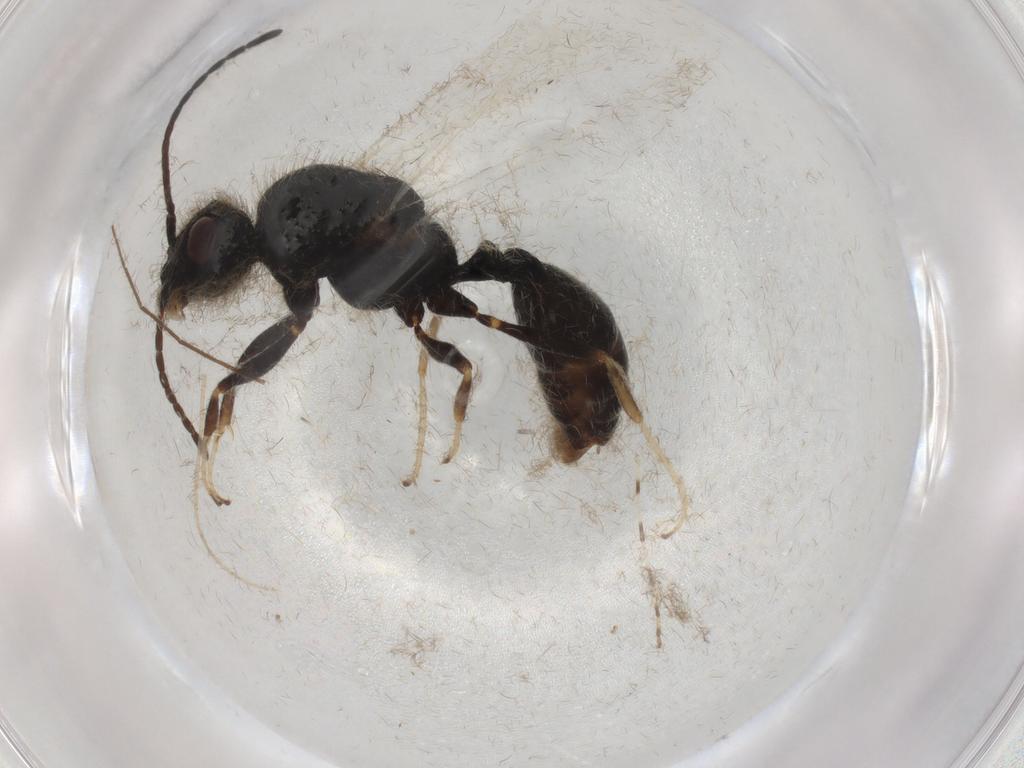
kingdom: Animalia
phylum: Arthropoda
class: Insecta
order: Hymenoptera
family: Formicidae
